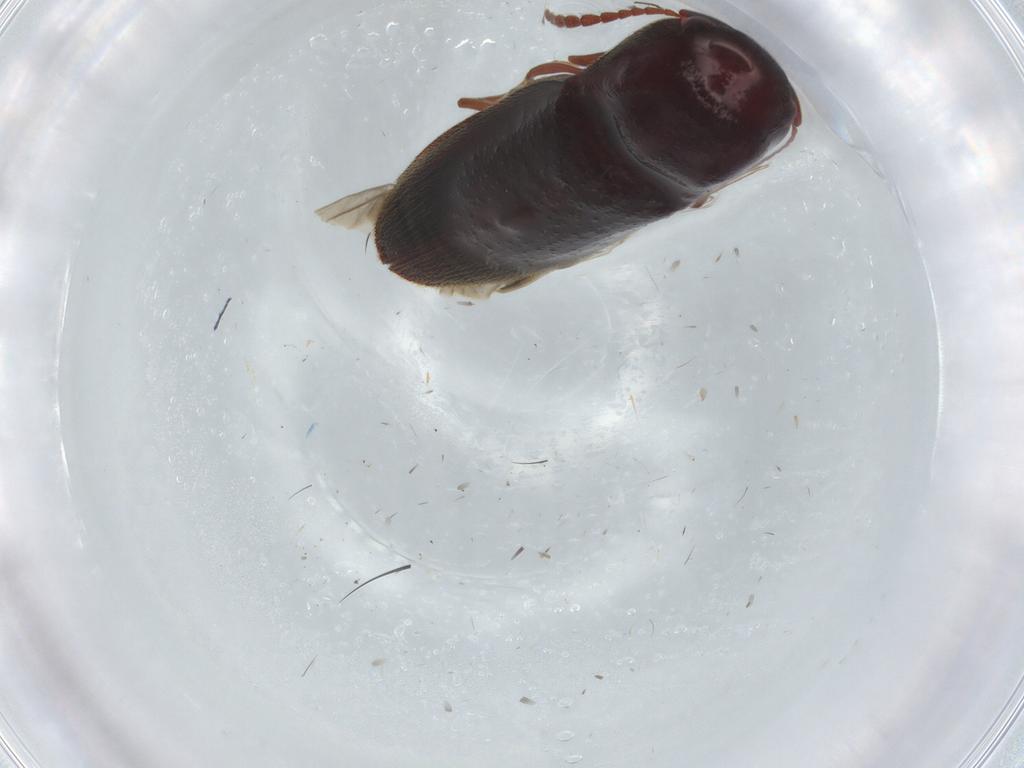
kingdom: Animalia
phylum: Arthropoda
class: Insecta
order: Coleoptera
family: Eucnemidae
